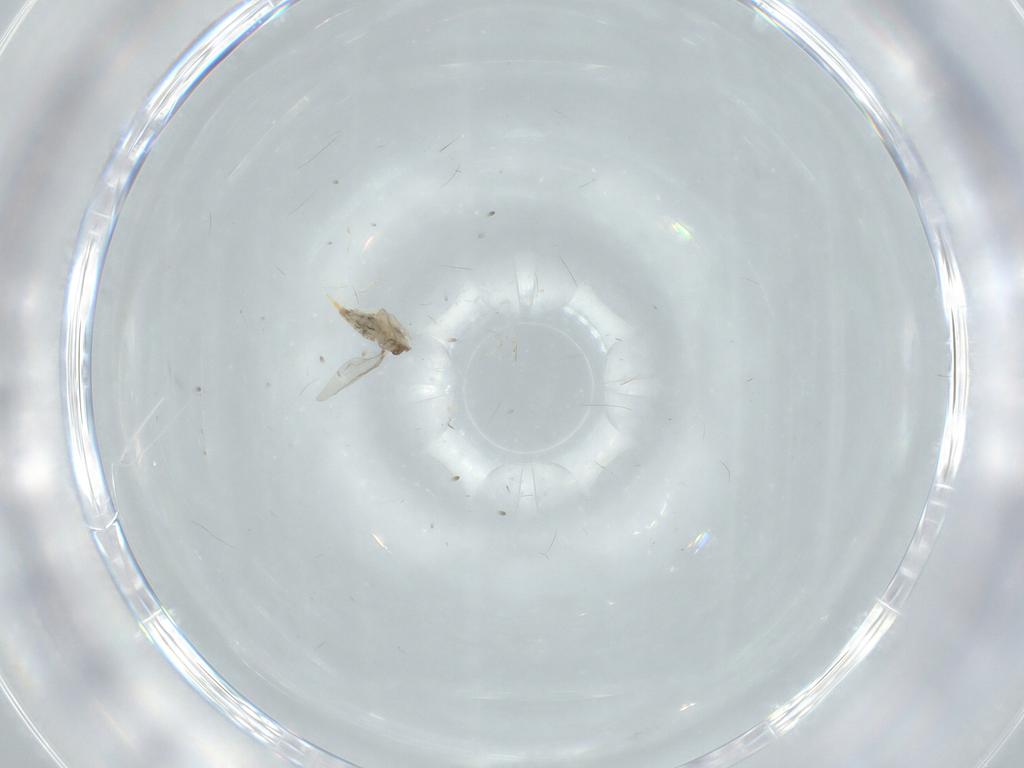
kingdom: Animalia
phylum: Arthropoda
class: Insecta
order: Diptera
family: Cecidomyiidae
